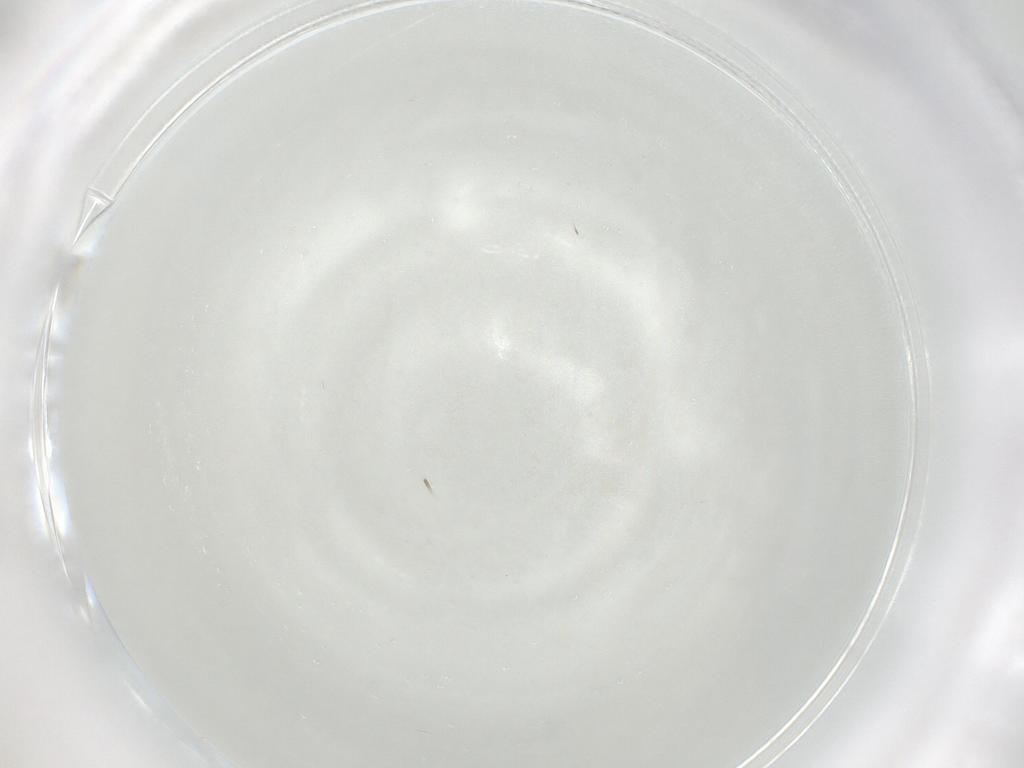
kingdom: Animalia
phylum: Arthropoda
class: Insecta
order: Hymenoptera
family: Mymaridae
